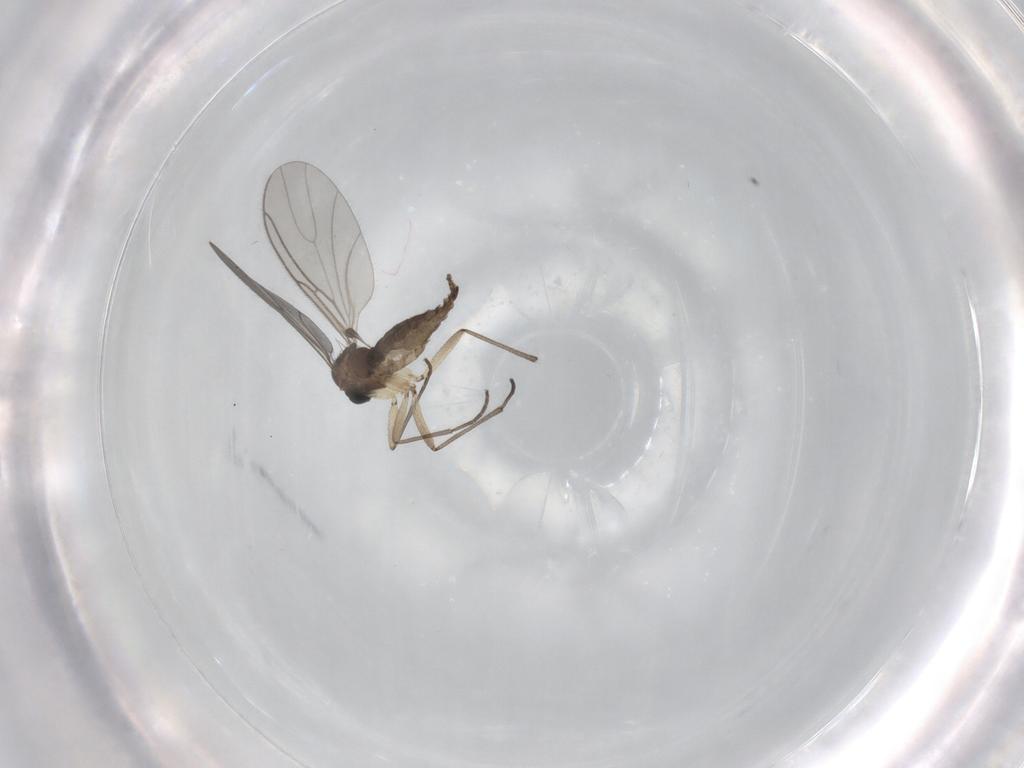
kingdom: Animalia
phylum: Arthropoda
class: Insecta
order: Diptera
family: Sciaridae
